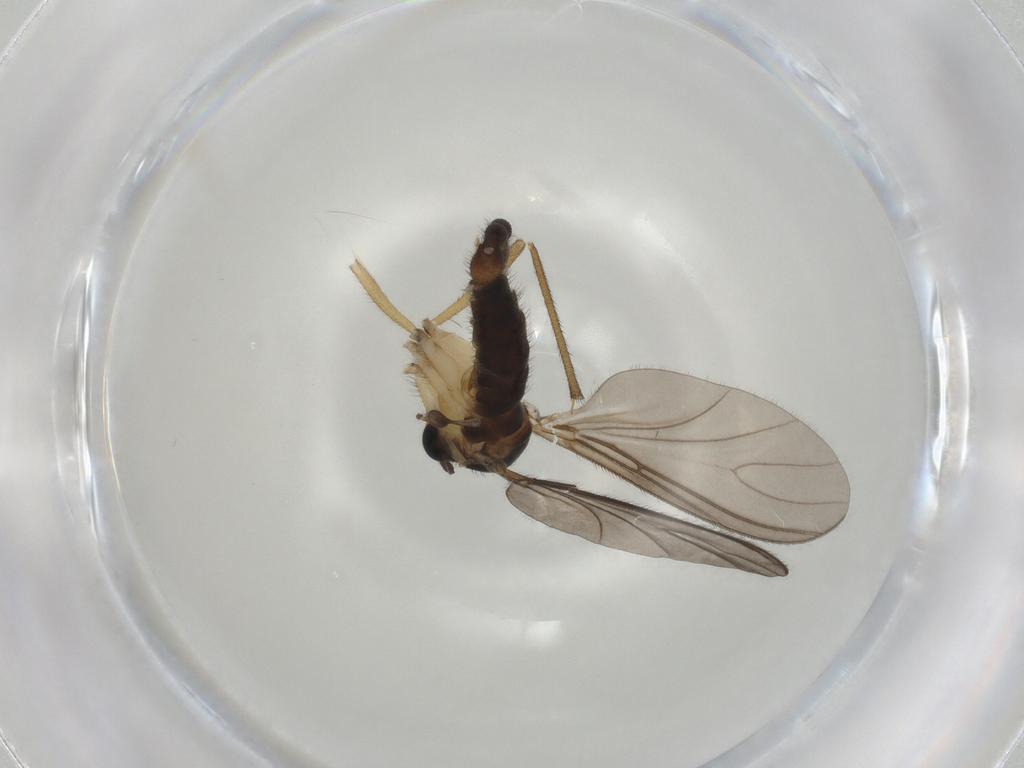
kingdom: Animalia
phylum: Arthropoda
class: Insecta
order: Diptera
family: Sciaridae
